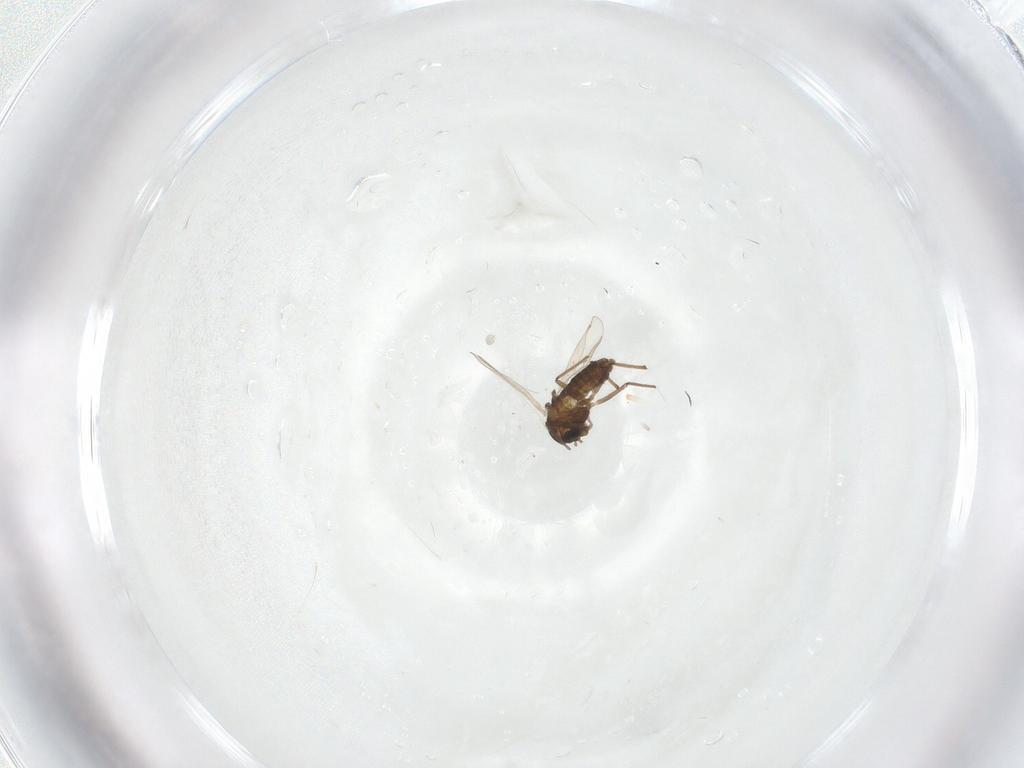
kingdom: Animalia
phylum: Arthropoda
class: Insecta
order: Diptera
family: Chironomidae
